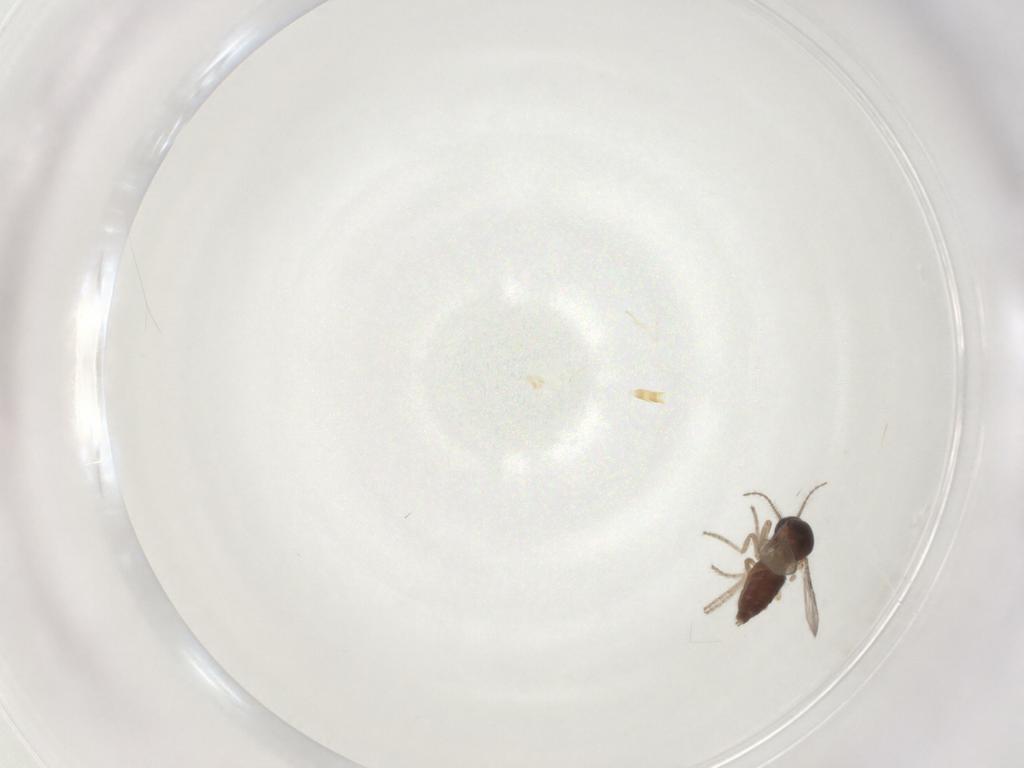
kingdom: Animalia
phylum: Arthropoda
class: Insecta
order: Diptera
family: Ceratopogonidae
